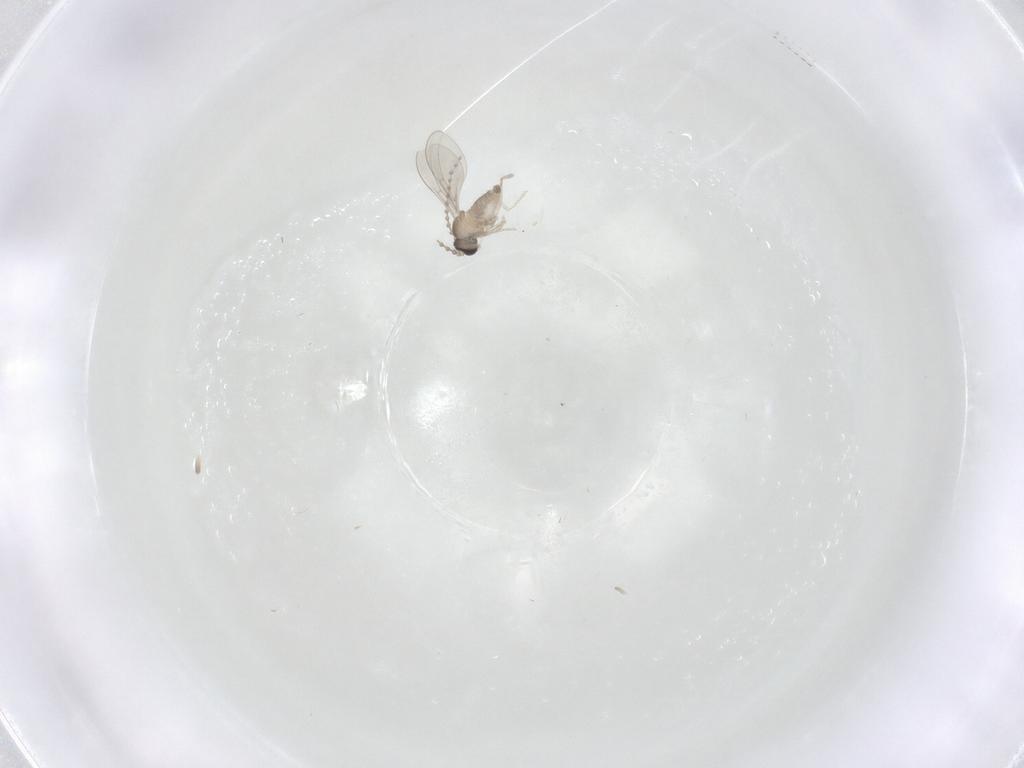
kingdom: Animalia
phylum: Arthropoda
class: Insecta
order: Diptera
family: Cecidomyiidae
